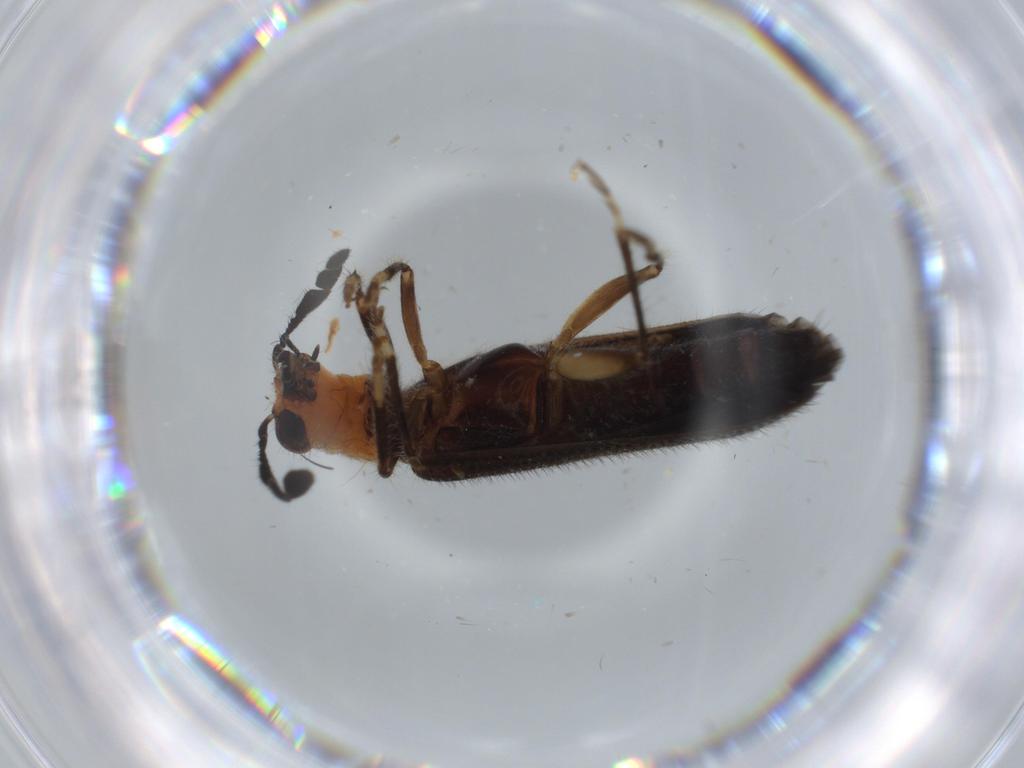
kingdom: Animalia
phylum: Arthropoda
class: Insecta
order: Coleoptera
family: Cleridae
